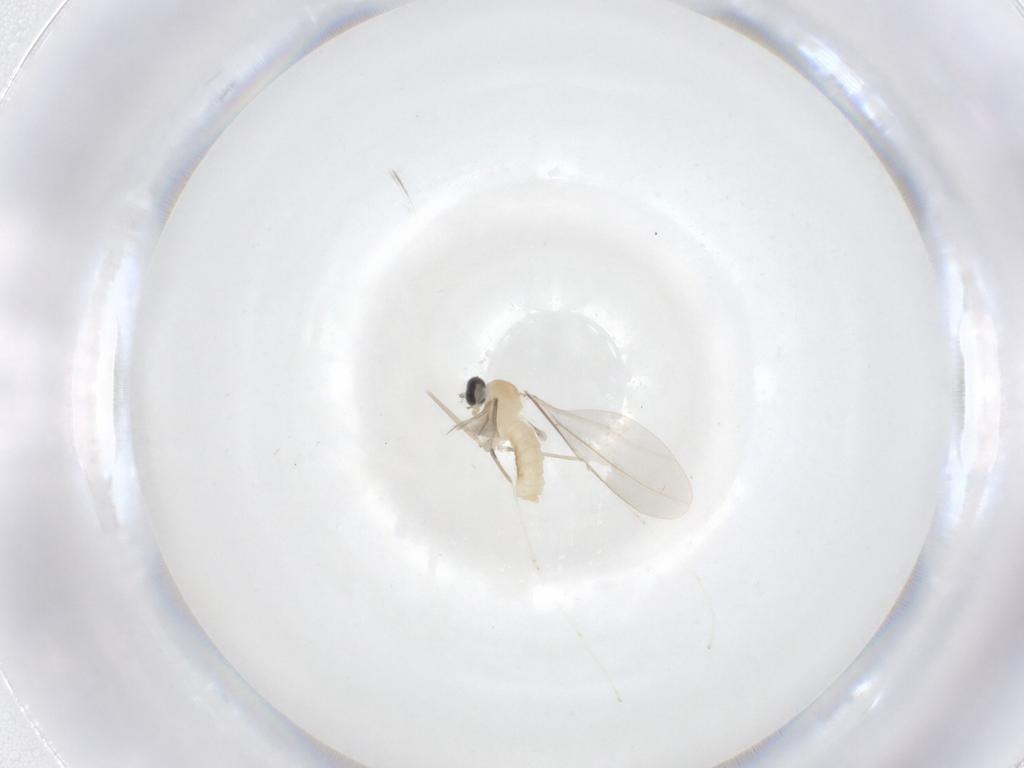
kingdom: Animalia
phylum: Arthropoda
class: Insecta
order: Diptera
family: Cecidomyiidae
